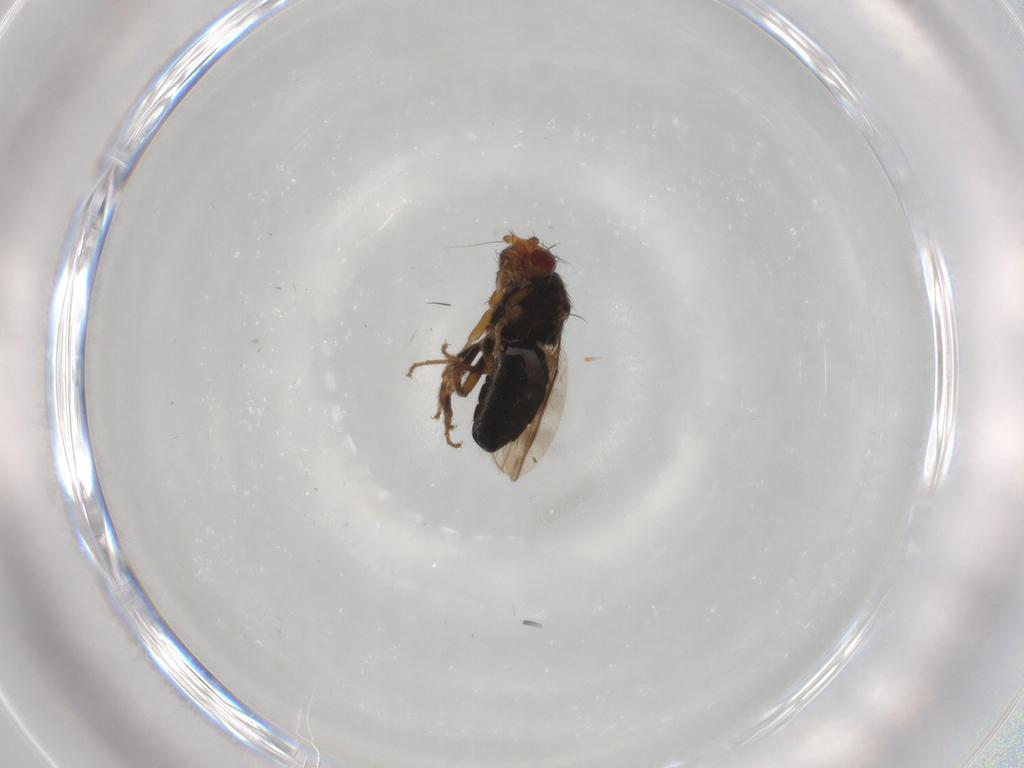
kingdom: Animalia
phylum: Arthropoda
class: Insecta
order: Diptera
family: Sphaeroceridae
